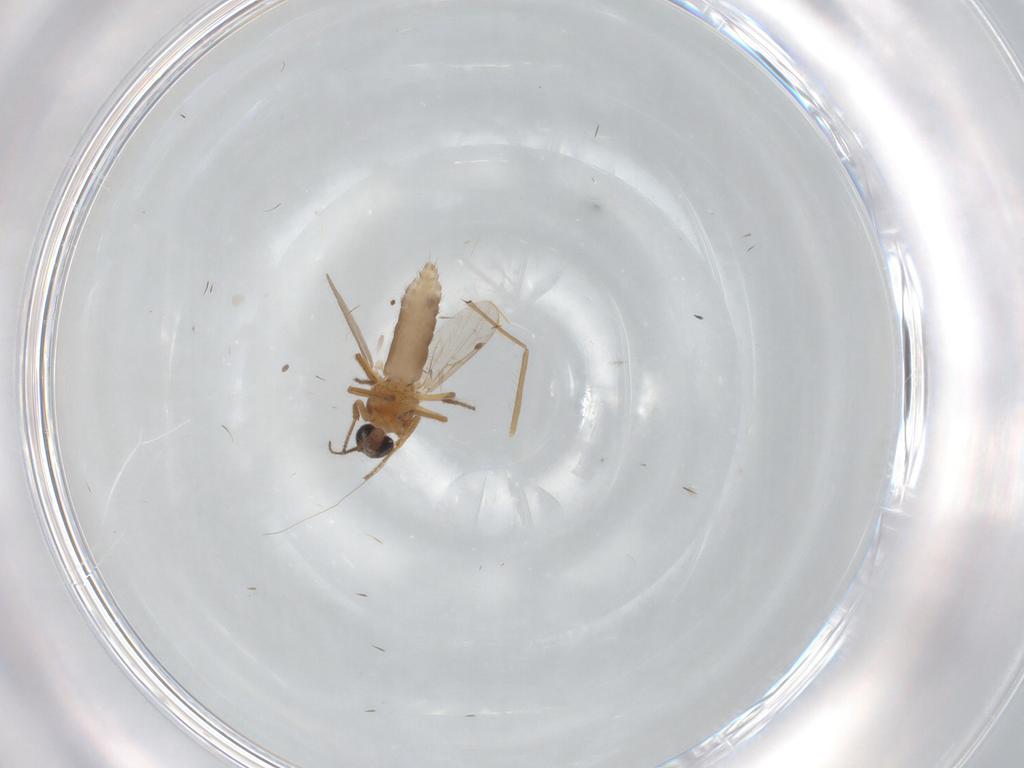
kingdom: Animalia
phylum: Arthropoda
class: Insecta
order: Diptera
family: Ceratopogonidae
